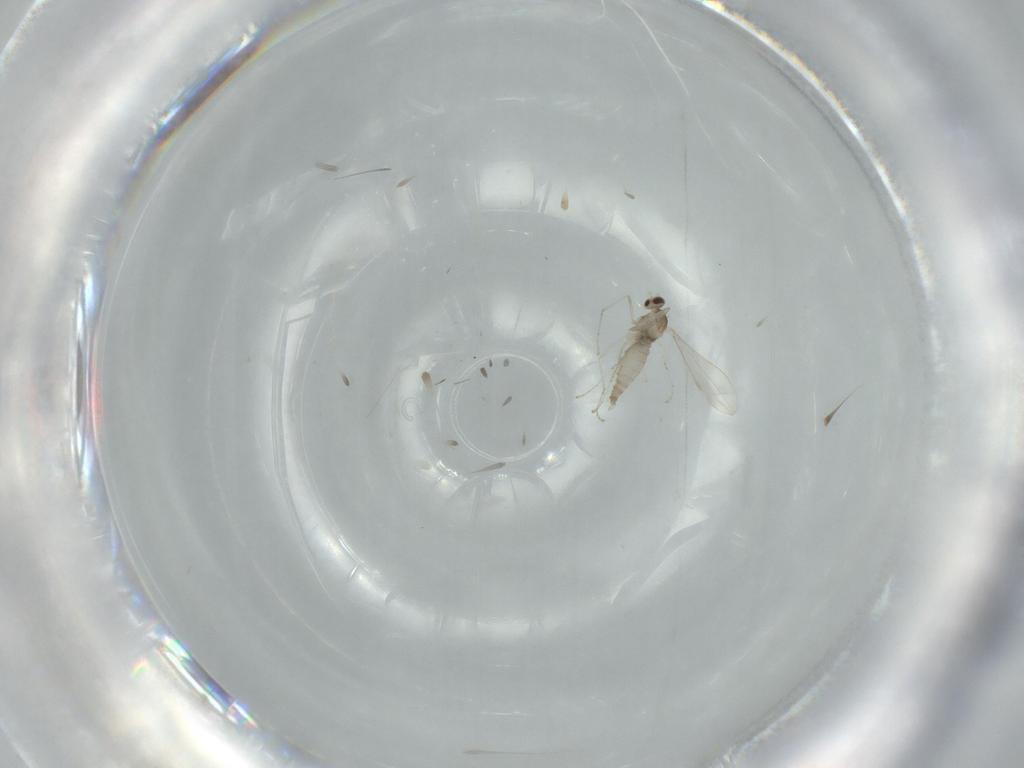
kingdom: Animalia
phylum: Arthropoda
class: Insecta
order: Diptera
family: Cecidomyiidae
